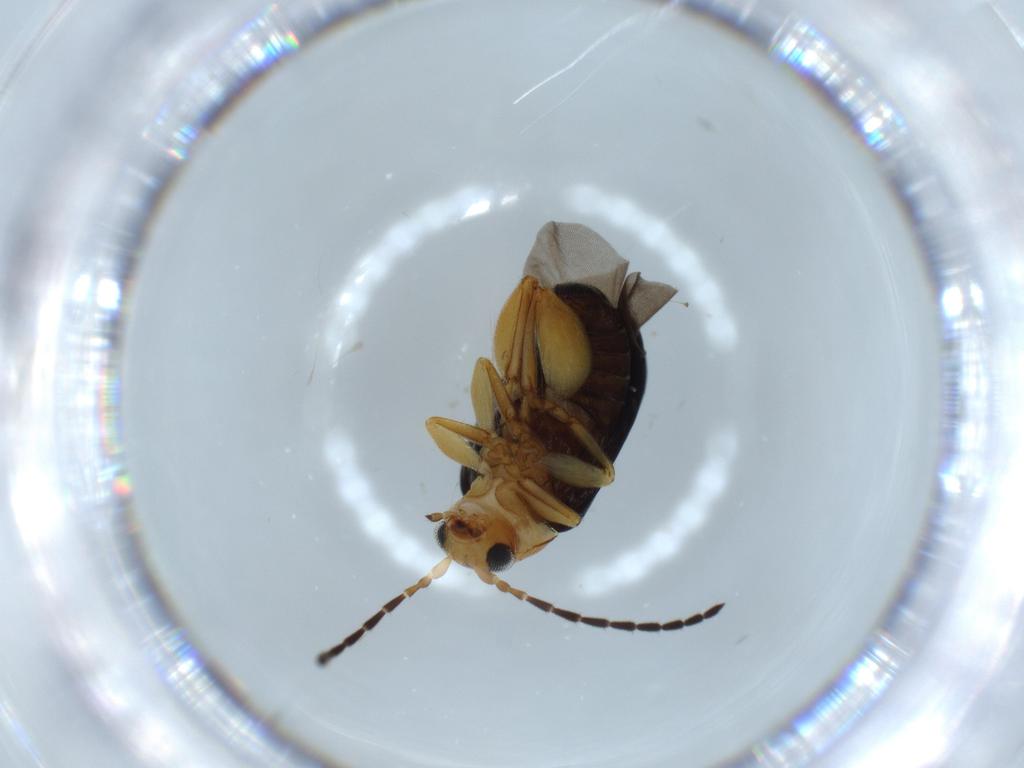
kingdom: Animalia
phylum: Arthropoda
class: Insecta
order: Coleoptera
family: Chrysomelidae
